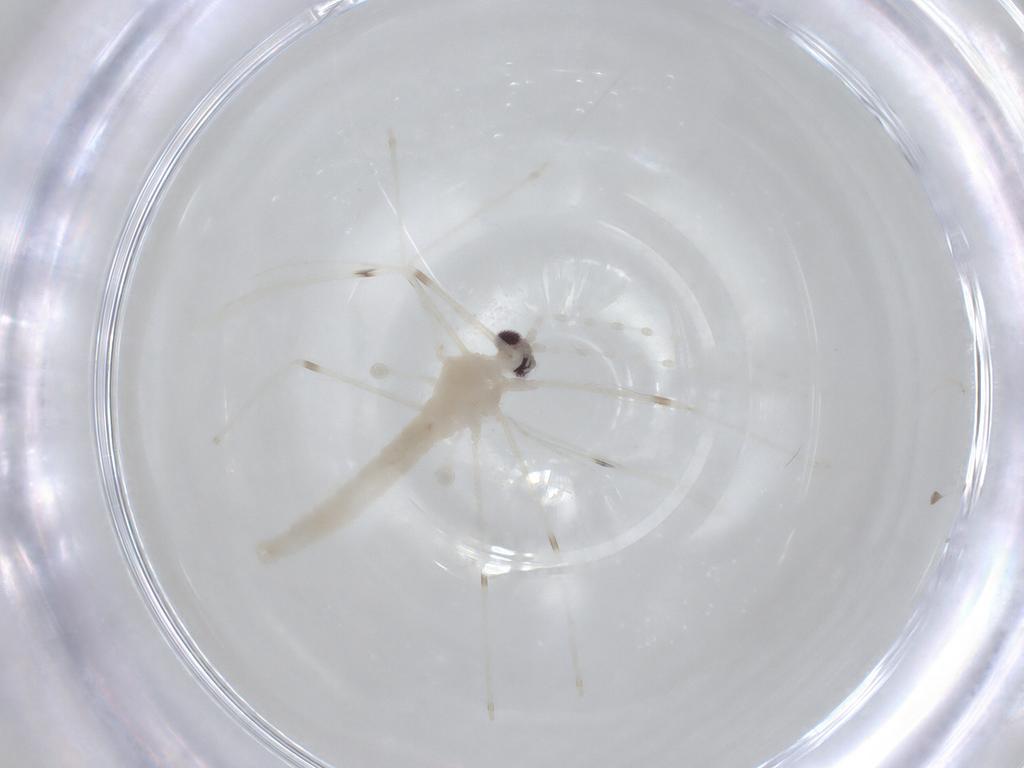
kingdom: Animalia
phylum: Arthropoda
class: Insecta
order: Diptera
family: Cecidomyiidae
